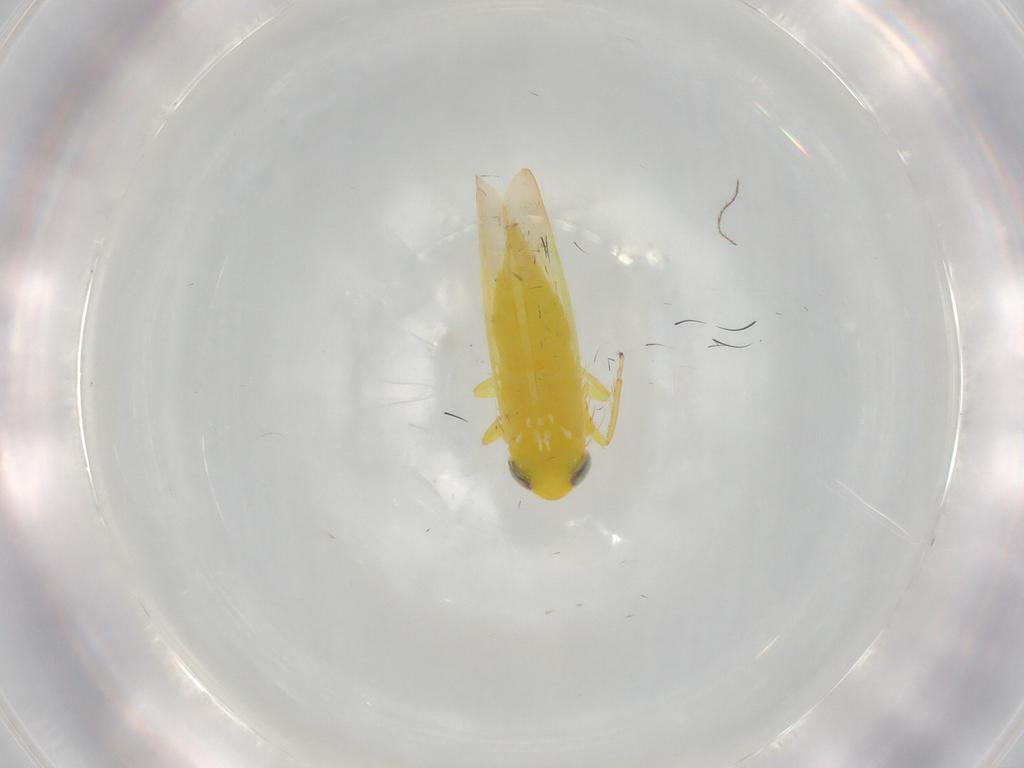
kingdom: Animalia
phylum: Arthropoda
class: Insecta
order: Hemiptera
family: Cicadellidae
